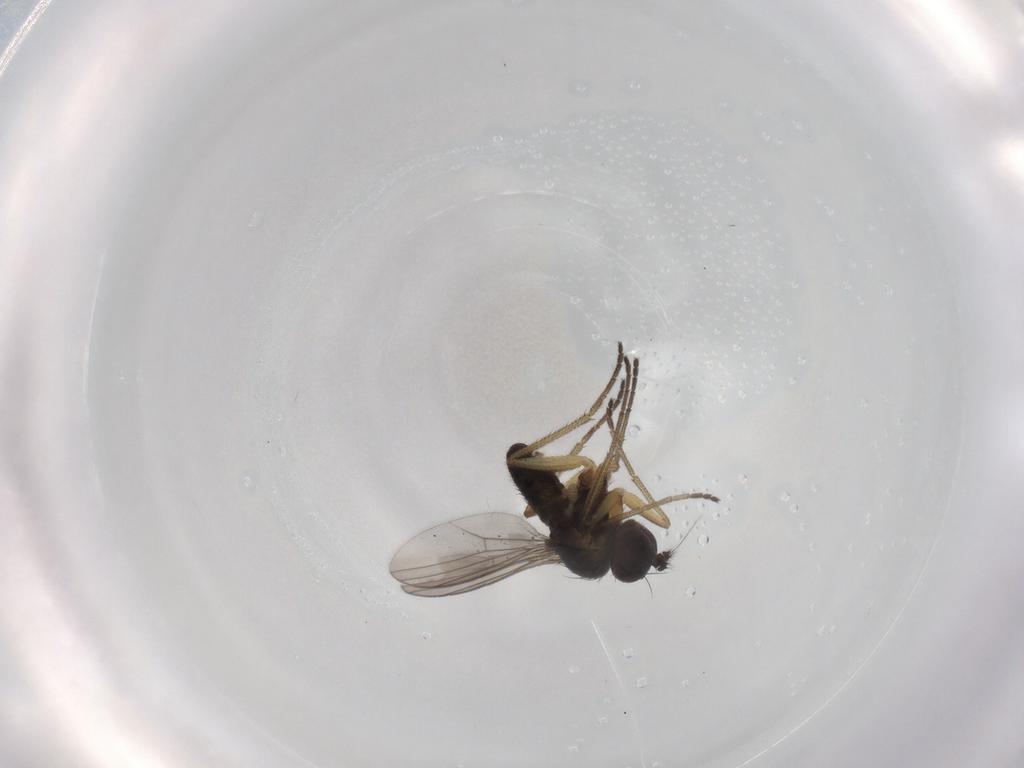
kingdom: Animalia
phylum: Arthropoda
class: Insecta
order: Diptera
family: Dolichopodidae
